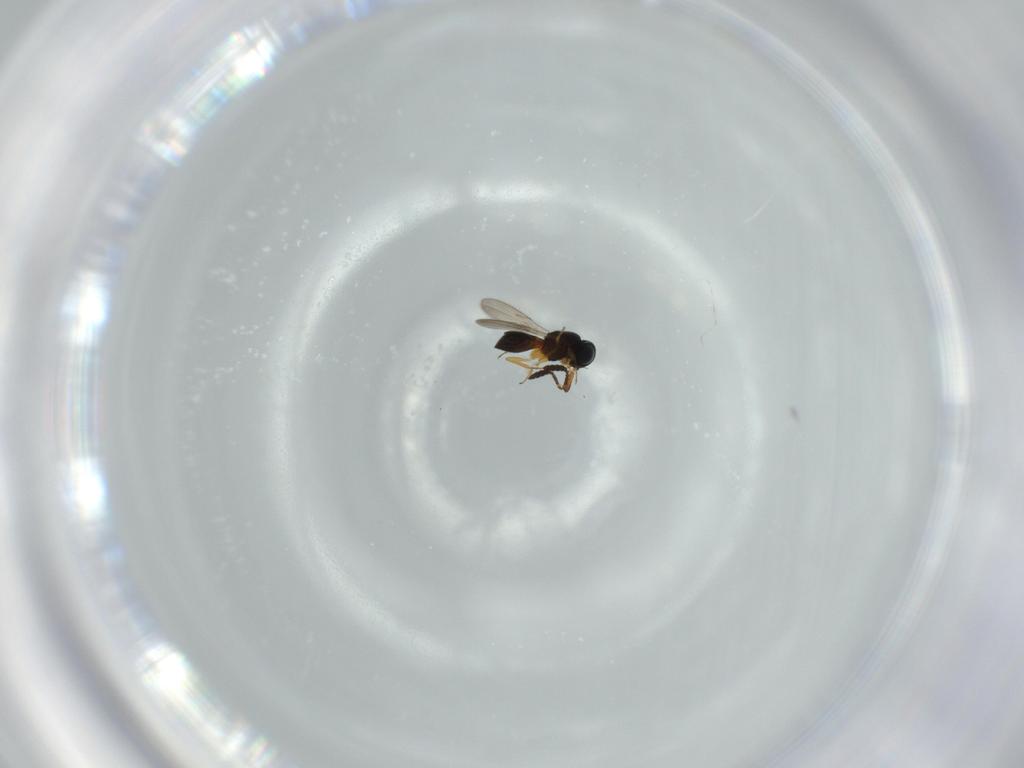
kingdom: Animalia
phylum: Arthropoda
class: Insecta
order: Hymenoptera
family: Scelionidae
